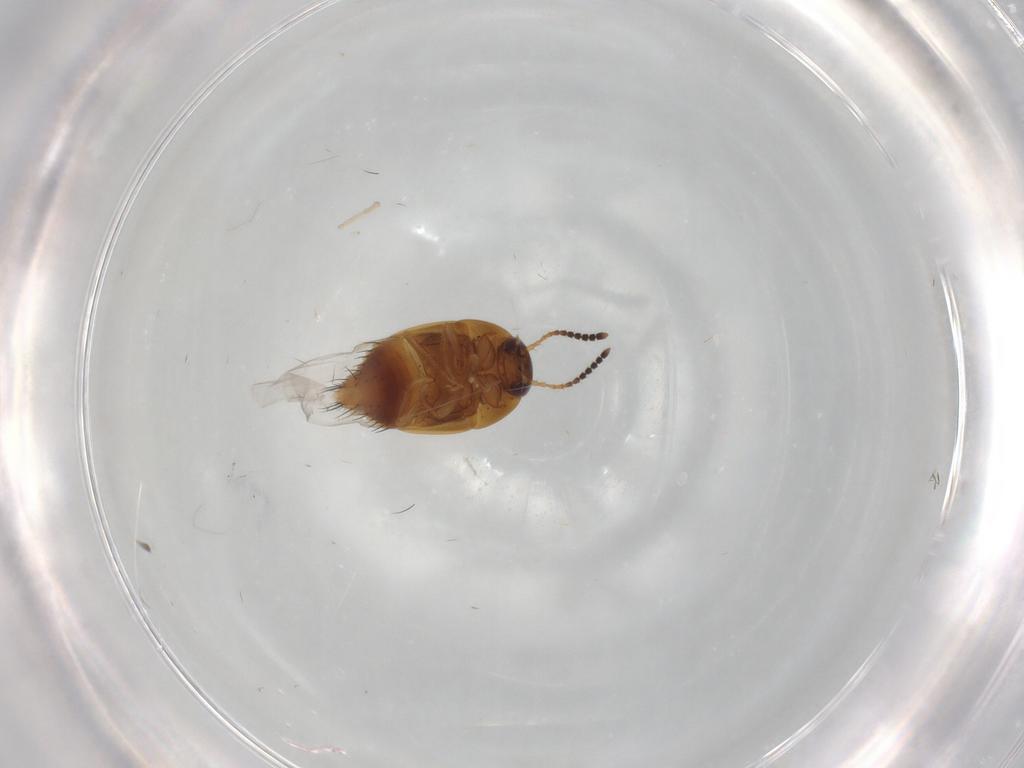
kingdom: Animalia
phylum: Arthropoda
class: Insecta
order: Coleoptera
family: Staphylinidae
